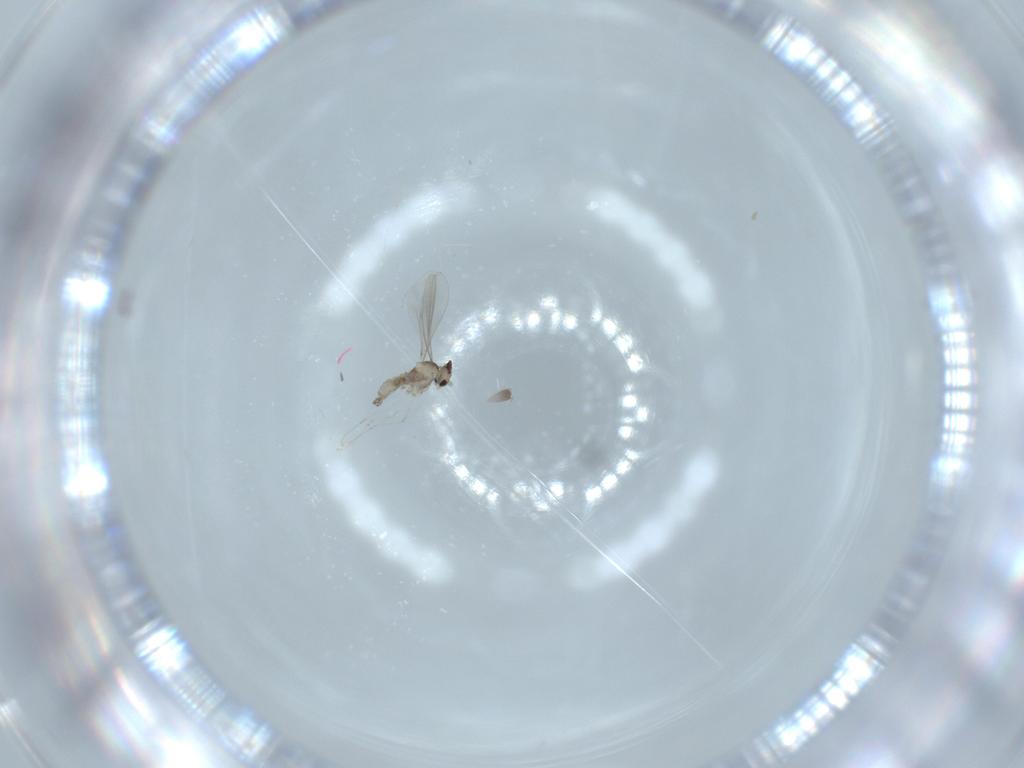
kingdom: Animalia
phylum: Arthropoda
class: Insecta
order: Diptera
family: Cecidomyiidae
